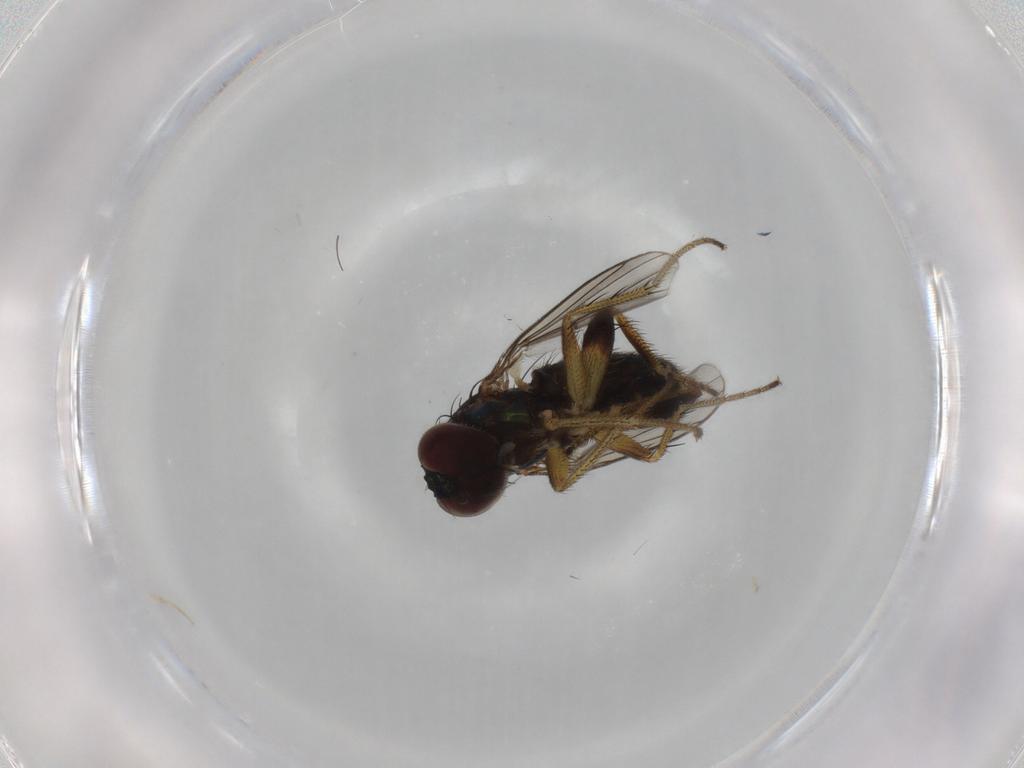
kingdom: Animalia
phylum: Arthropoda
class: Insecta
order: Diptera
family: Dolichopodidae
